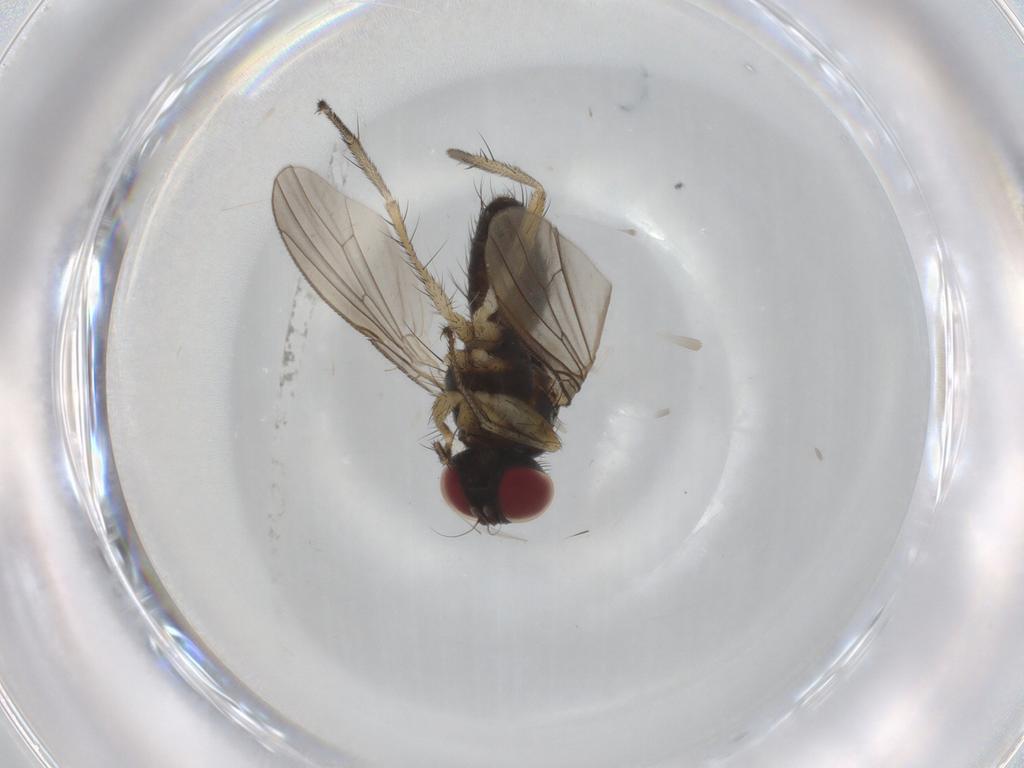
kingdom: Animalia
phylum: Arthropoda
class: Insecta
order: Diptera
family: Muscidae
